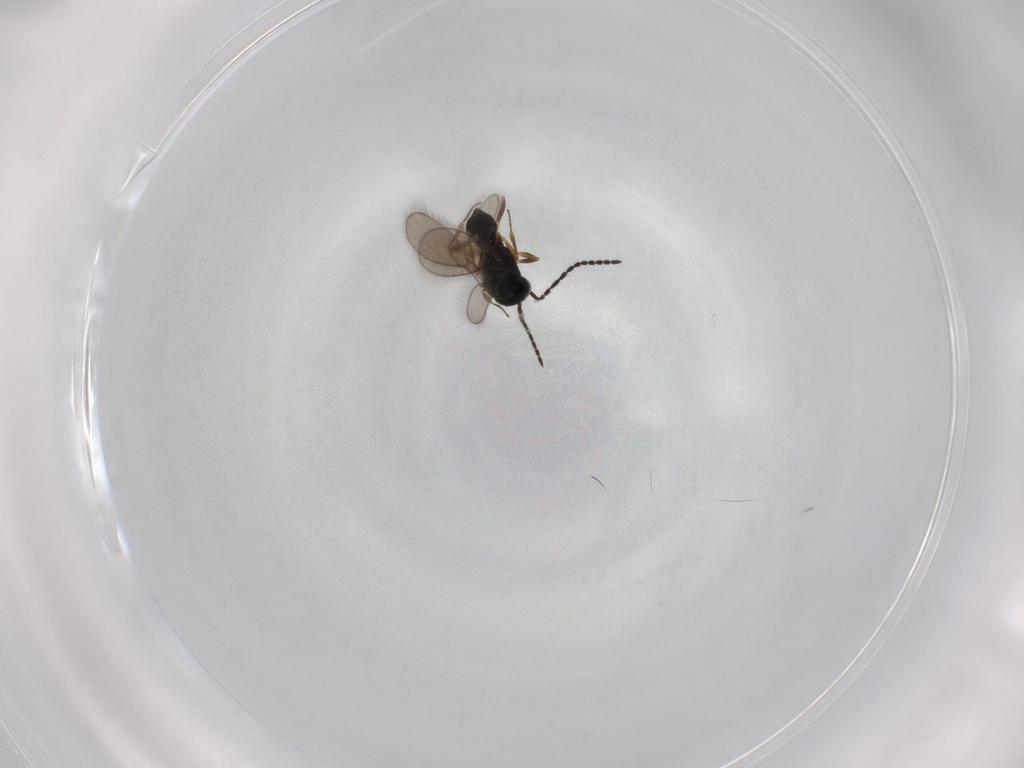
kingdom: Animalia
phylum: Arthropoda
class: Insecta
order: Hymenoptera
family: Scelionidae
